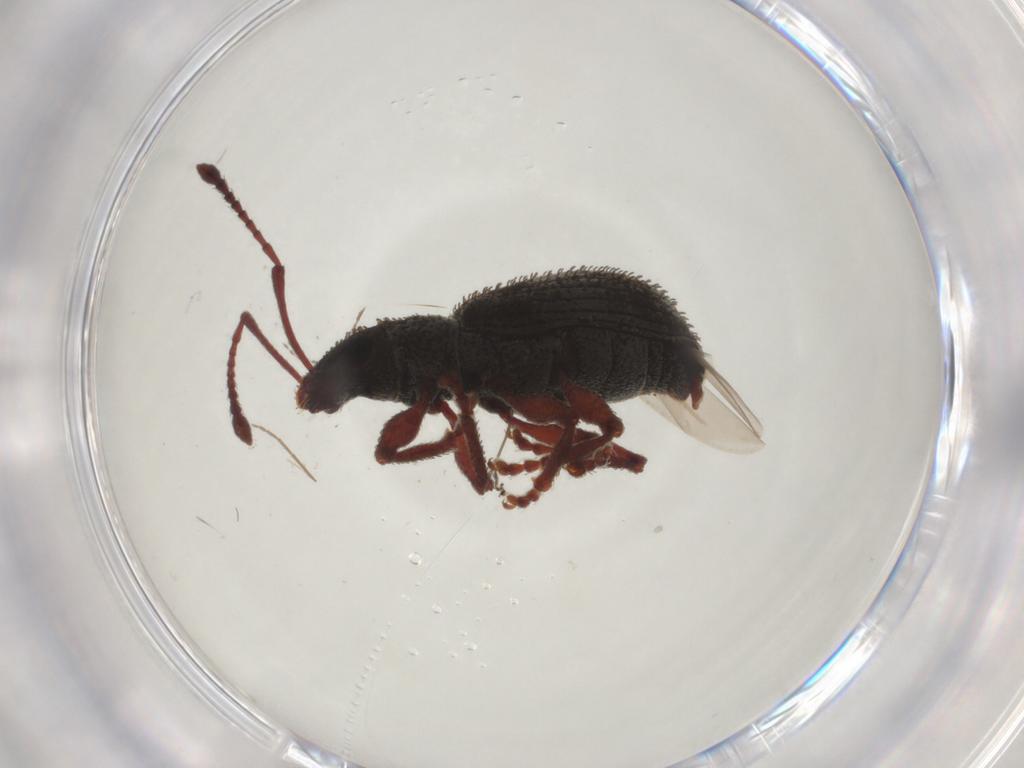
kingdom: Animalia
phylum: Arthropoda
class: Insecta
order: Coleoptera
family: Curculionidae
